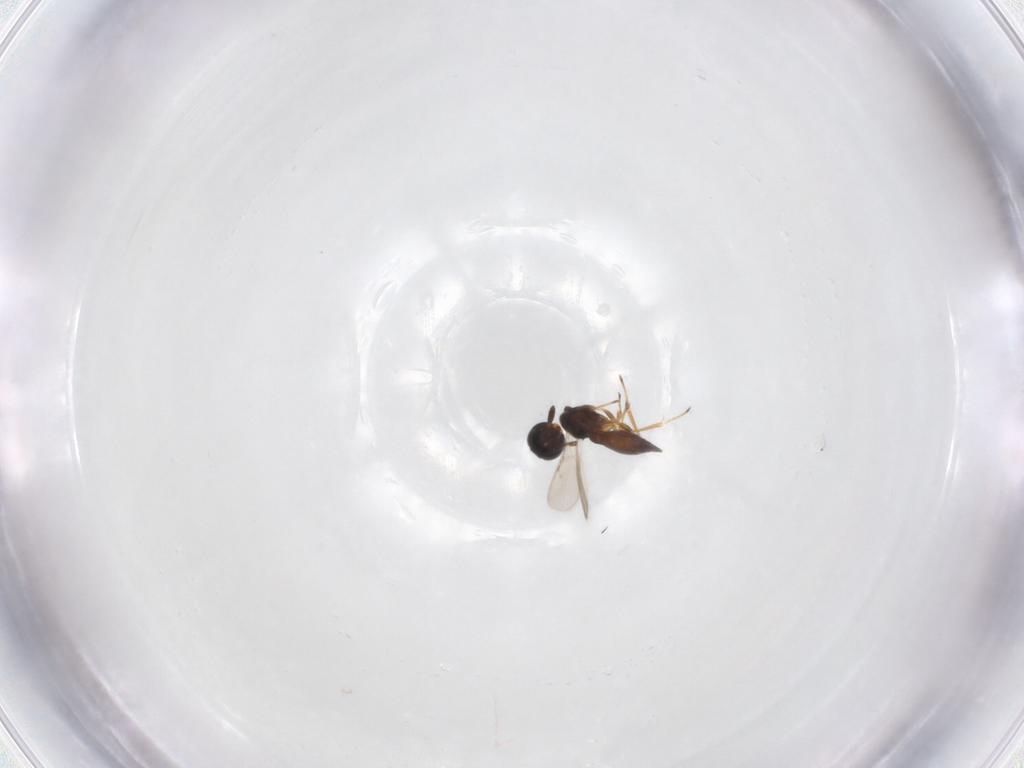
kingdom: Animalia
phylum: Arthropoda
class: Insecta
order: Hymenoptera
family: Scelionidae
